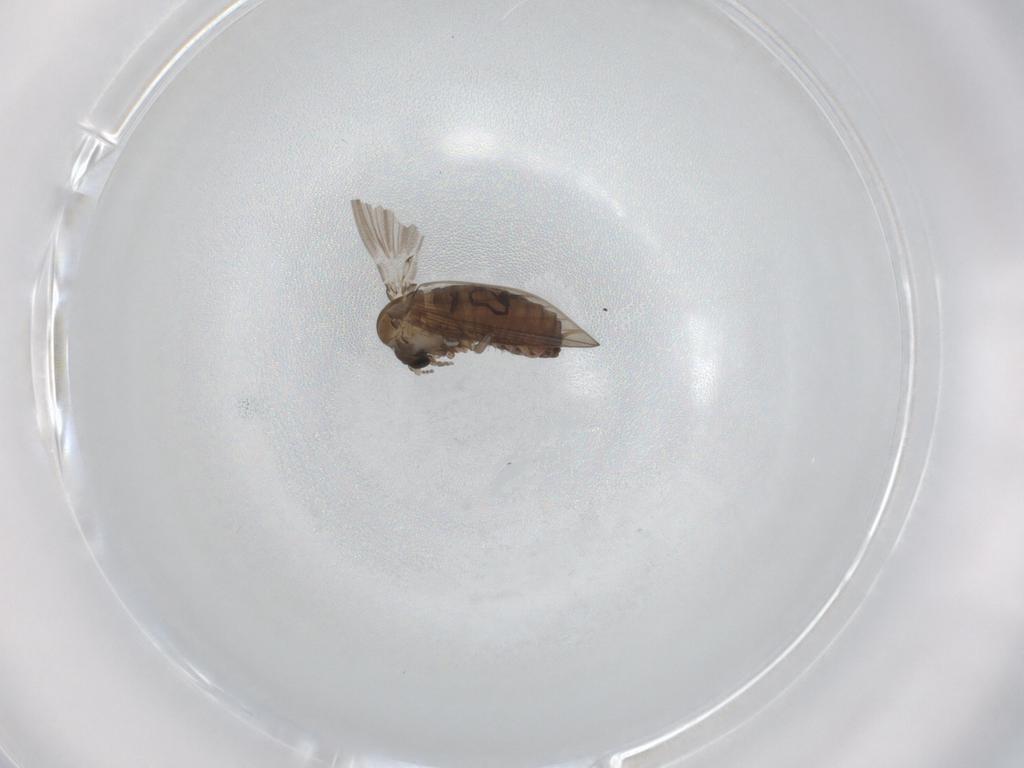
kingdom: Animalia
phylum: Arthropoda
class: Insecta
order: Diptera
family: Psychodidae
